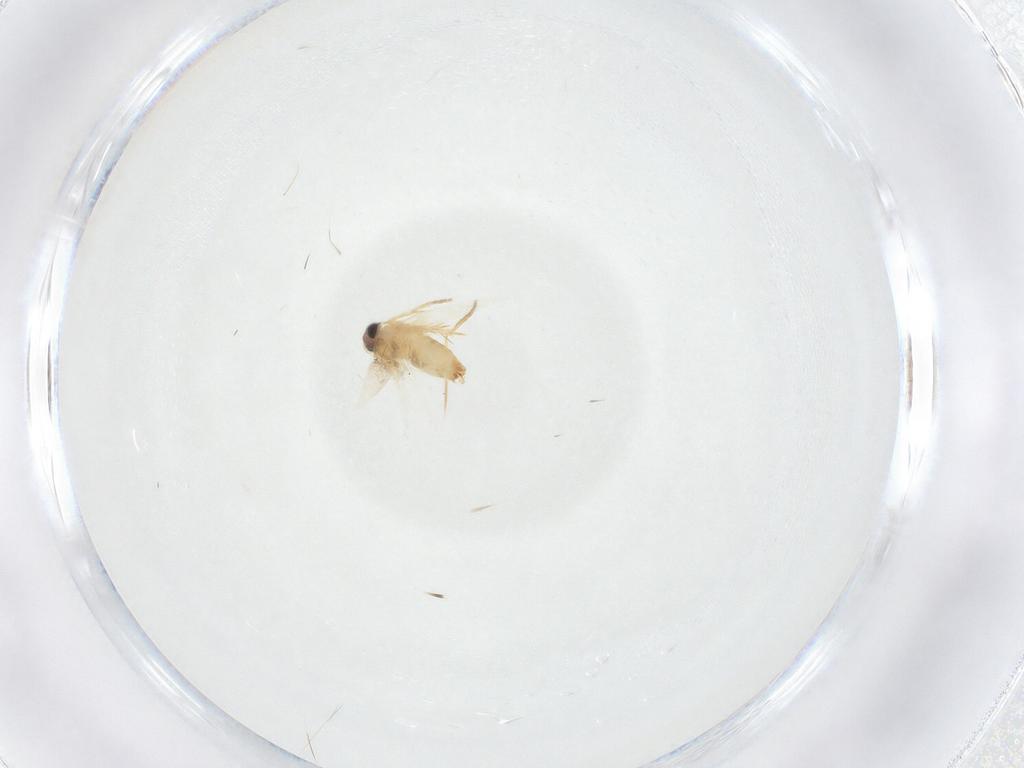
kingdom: Animalia
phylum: Arthropoda
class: Insecta
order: Lepidoptera
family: Crambidae
